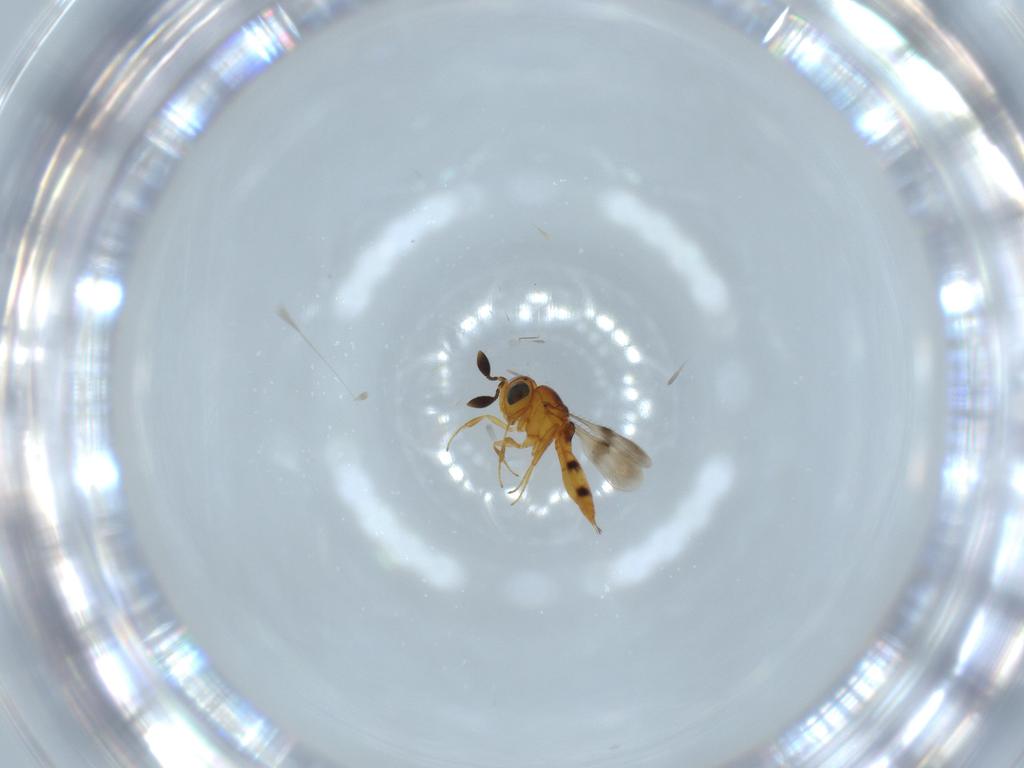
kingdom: Animalia
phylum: Arthropoda
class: Insecta
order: Hymenoptera
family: Scelionidae
